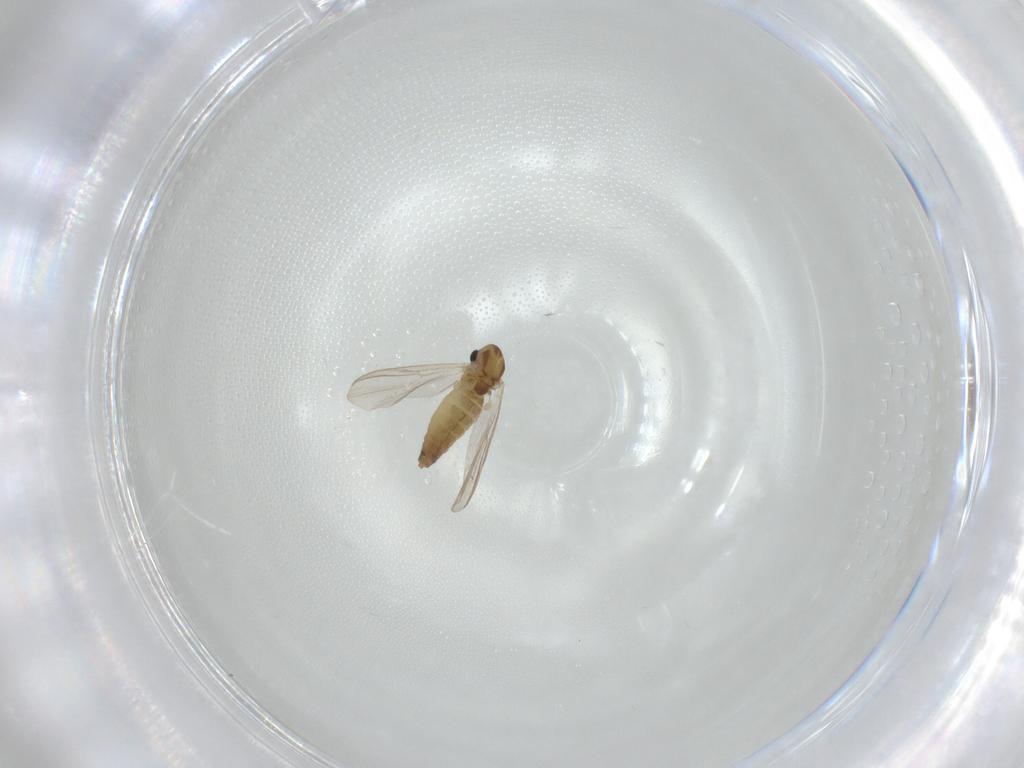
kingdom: Animalia
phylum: Arthropoda
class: Insecta
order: Diptera
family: Chironomidae
